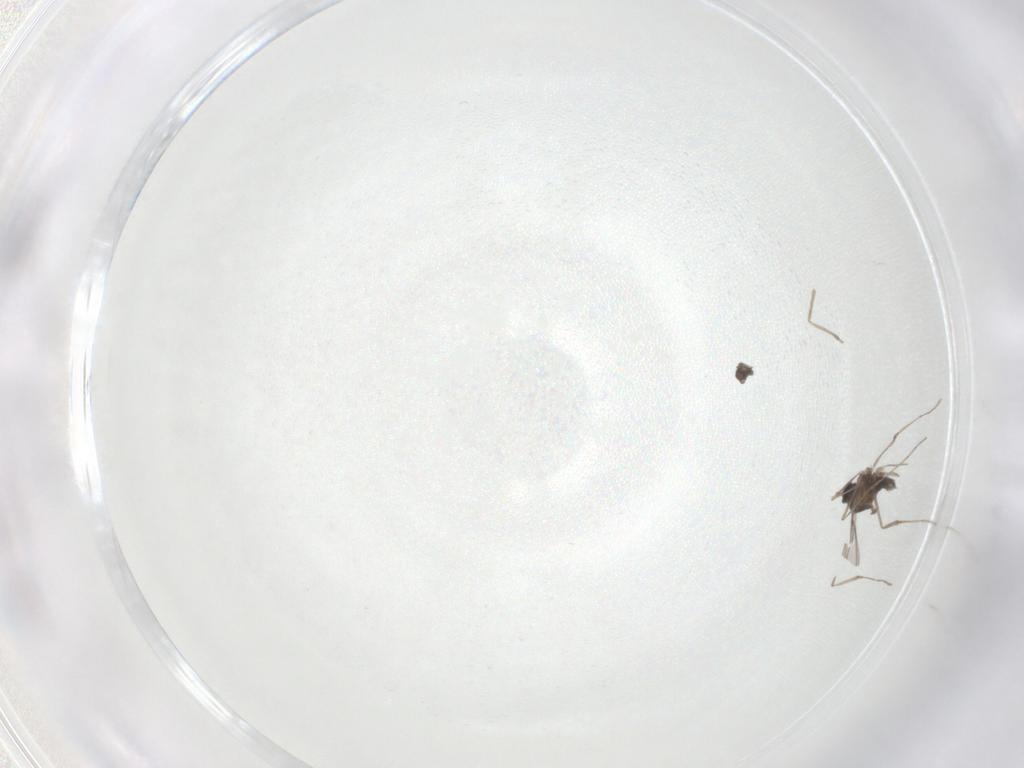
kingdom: Animalia
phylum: Arthropoda
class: Insecta
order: Diptera
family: Cecidomyiidae
